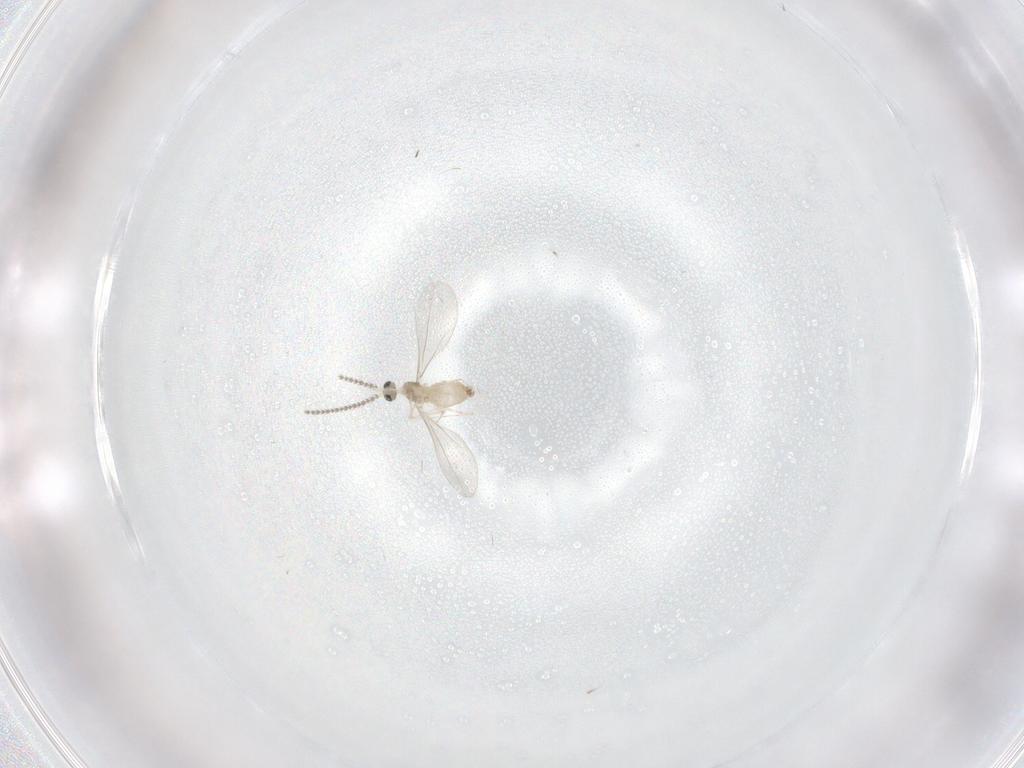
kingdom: Animalia
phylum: Arthropoda
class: Insecta
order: Diptera
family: Cecidomyiidae
